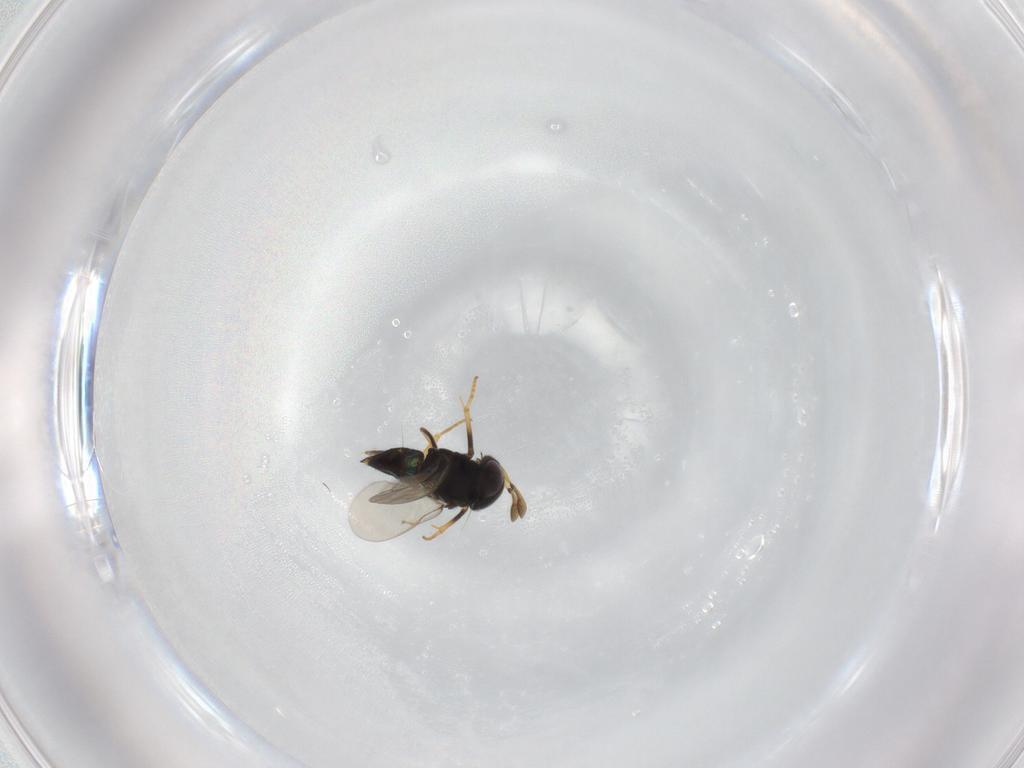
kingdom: Animalia
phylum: Arthropoda
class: Insecta
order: Hymenoptera
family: Encyrtidae
